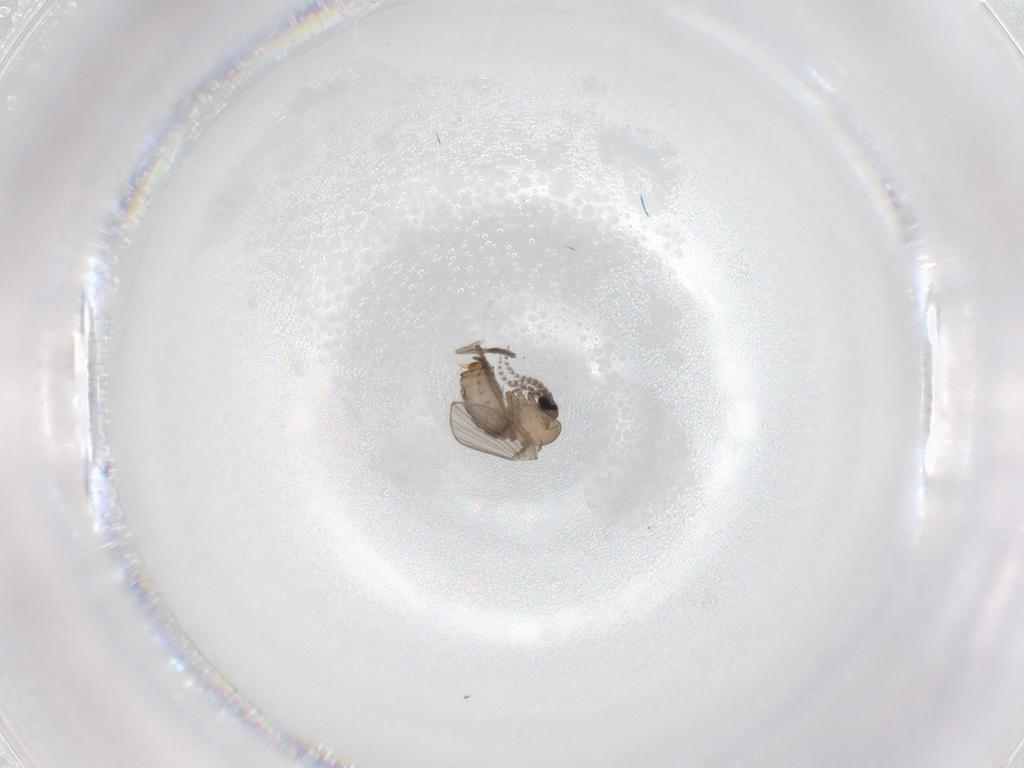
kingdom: Animalia
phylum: Arthropoda
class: Insecta
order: Diptera
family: Psychodidae
